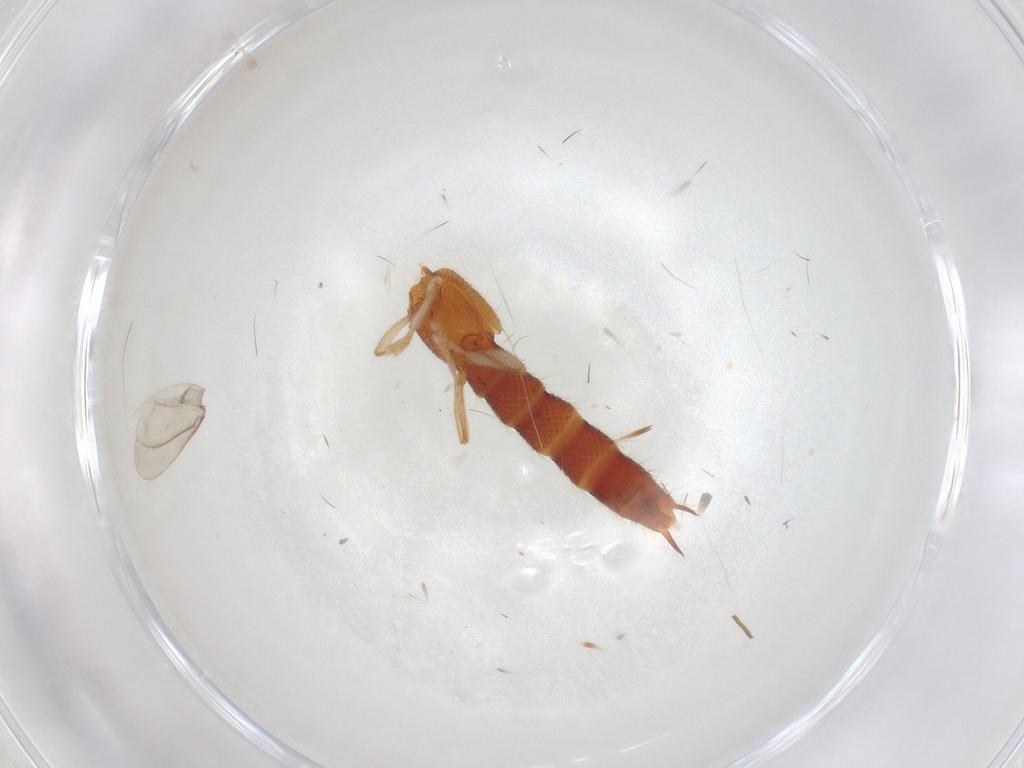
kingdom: Animalia
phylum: Arthropoda
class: Insecta
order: Coleoptera
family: Staphylinidae
